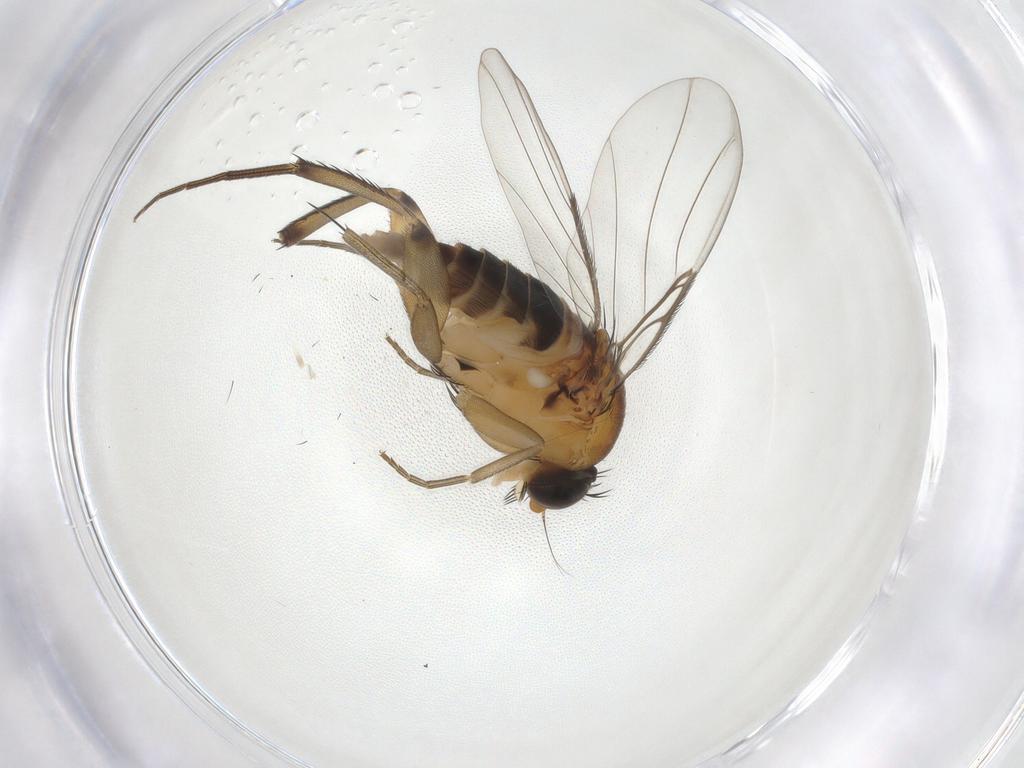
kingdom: Animalia
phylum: Arthropoda
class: Insecta
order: Diptera
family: Phoridae
